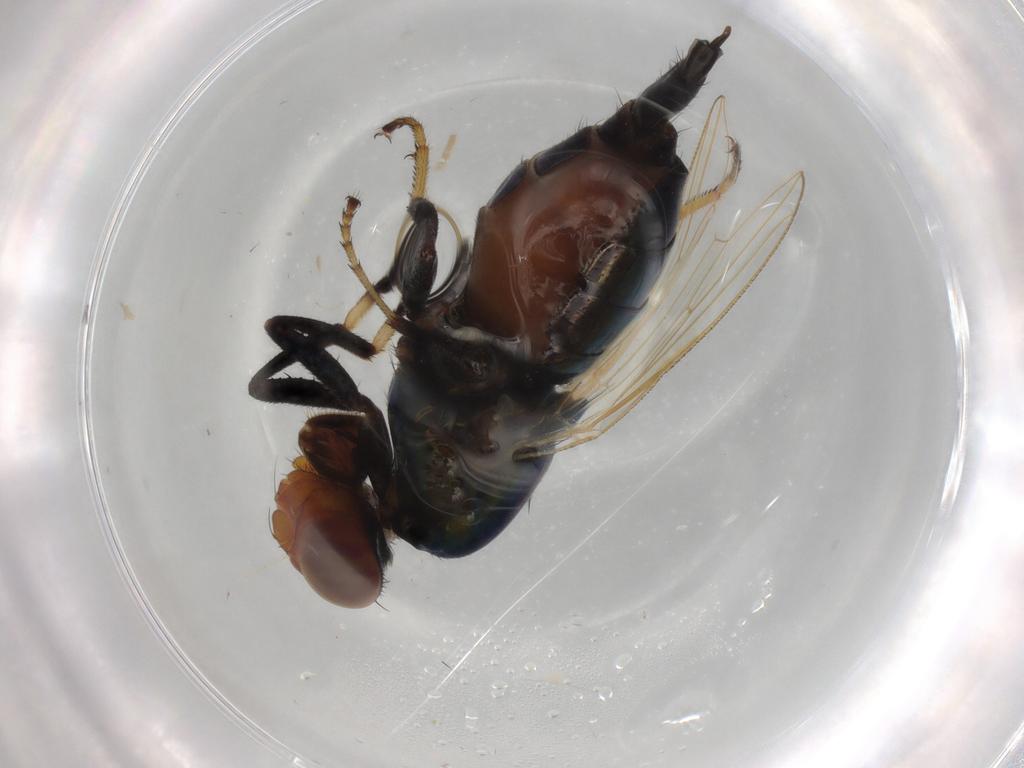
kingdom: Animalia
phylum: Arthropoda
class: Insecta
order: Diptera
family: Ulidiidae
